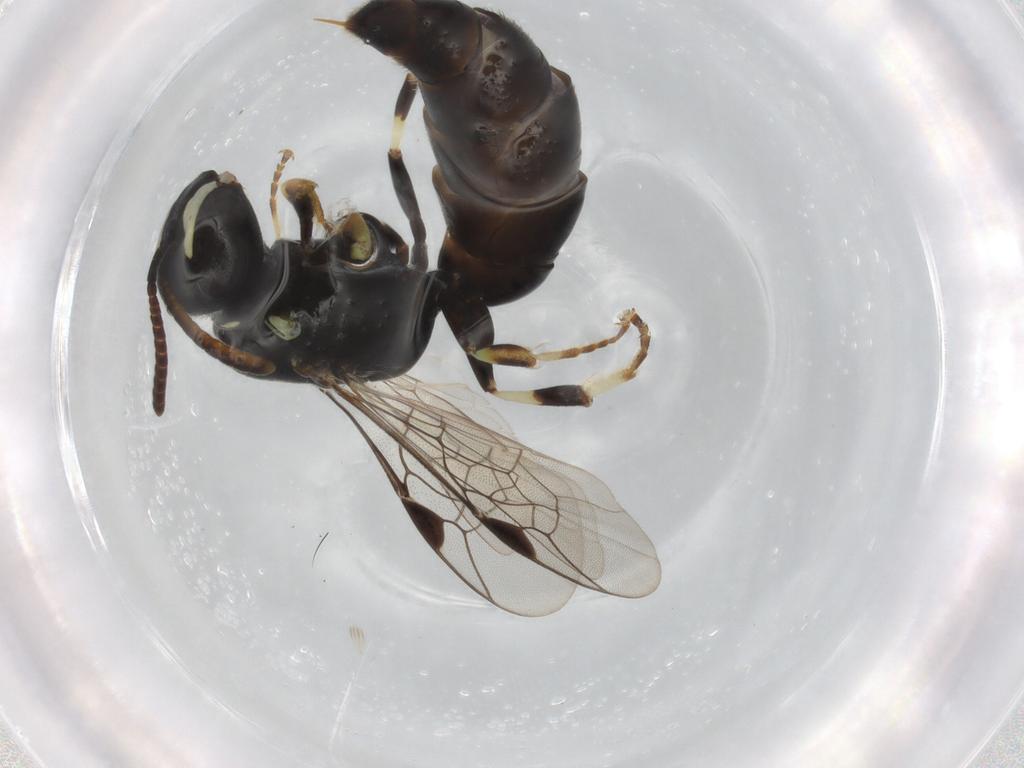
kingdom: Animalia
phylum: Arthropoda
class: Insecta
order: Hymenoptera
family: Colletidae
